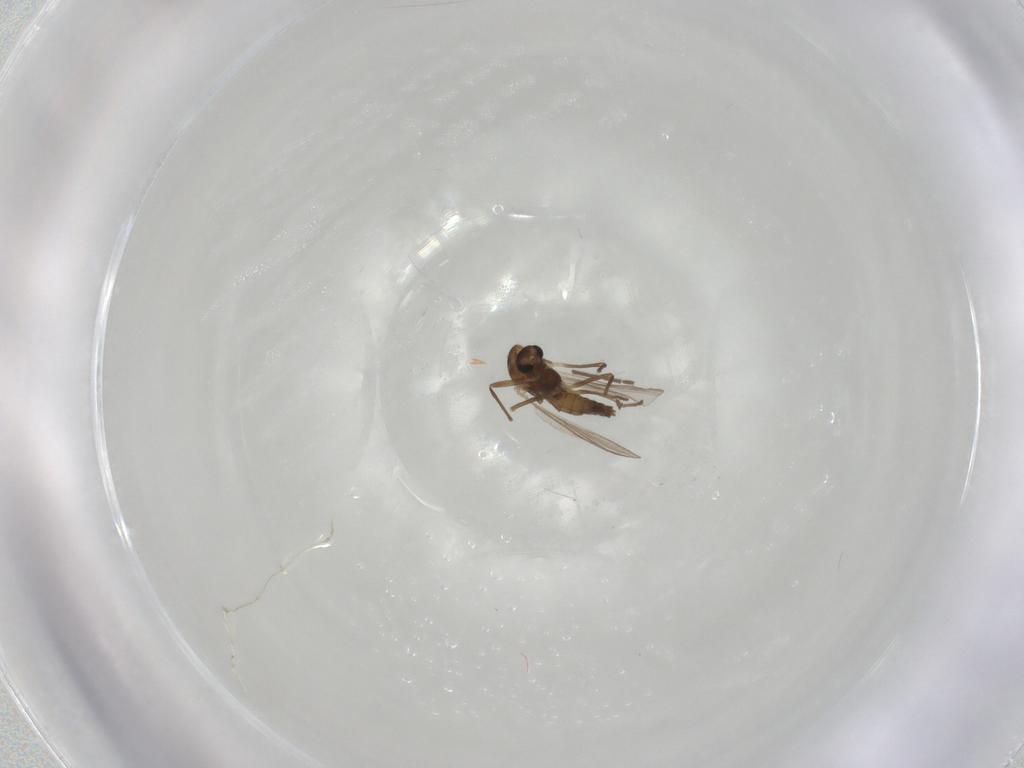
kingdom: Animalia
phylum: Arthropoda
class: Insecta
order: Diptera
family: Chironomidae
